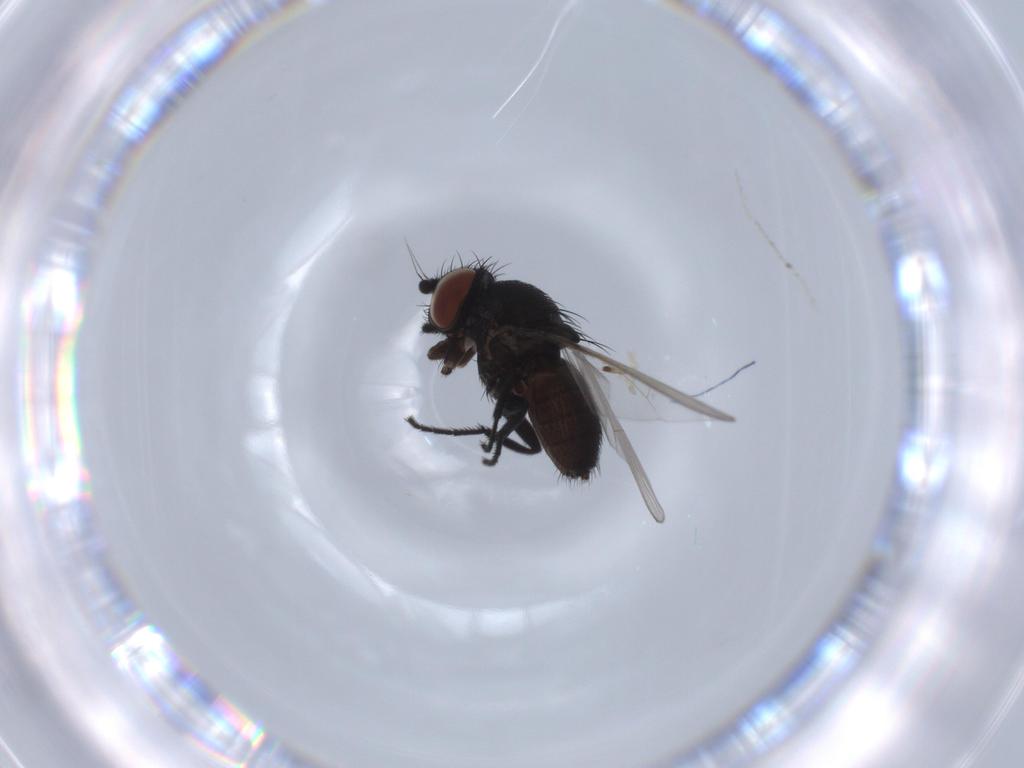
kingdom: Animalia
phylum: Arthropoda
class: Insecta
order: Diptera
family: Milichiidae
